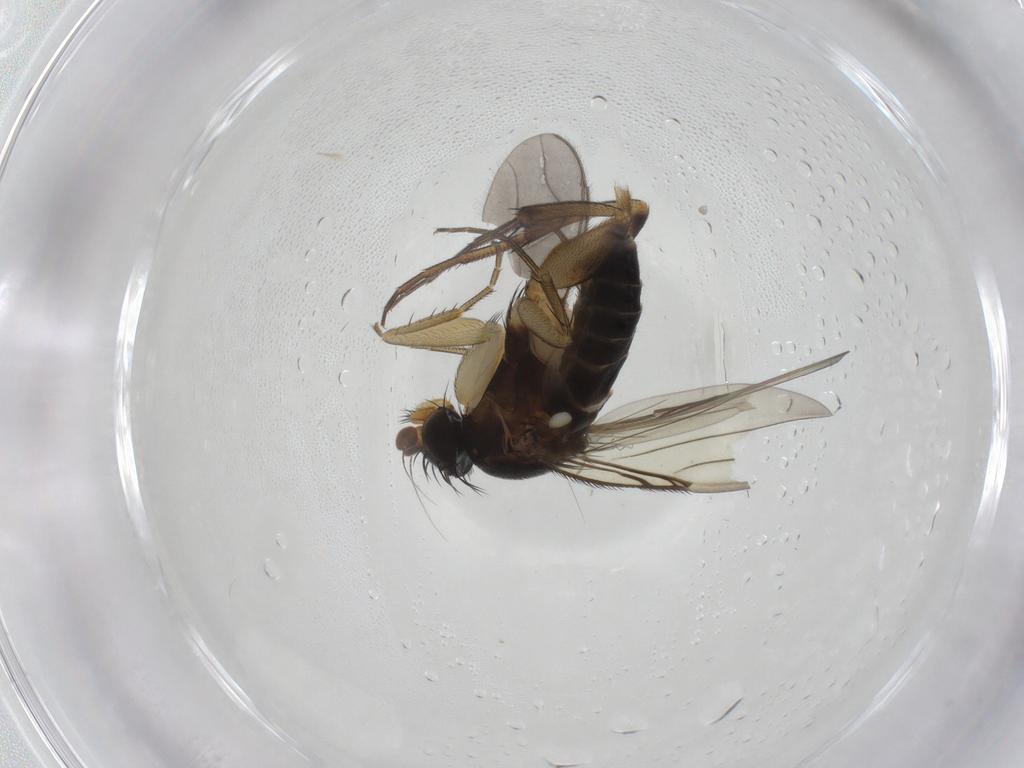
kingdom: Animalia
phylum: Arthropoda
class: Insecta
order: Diptera
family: Phoridae
